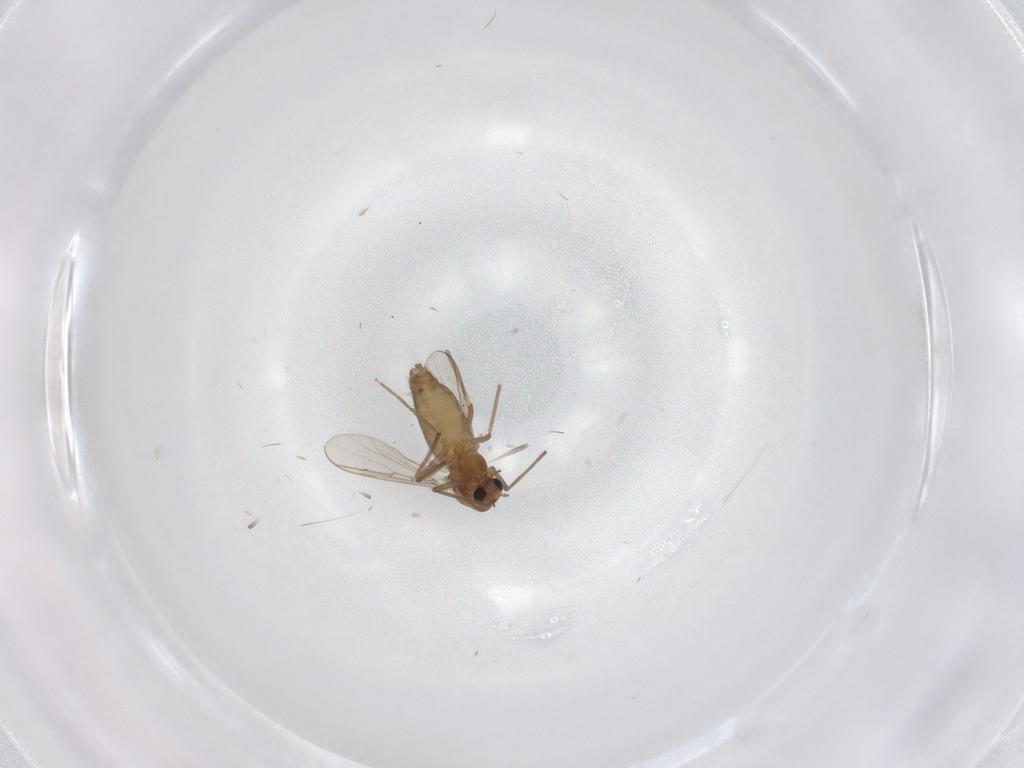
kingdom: Animalia
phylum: Arthropoda
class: Insecta
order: Diptera
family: Chironomidae
